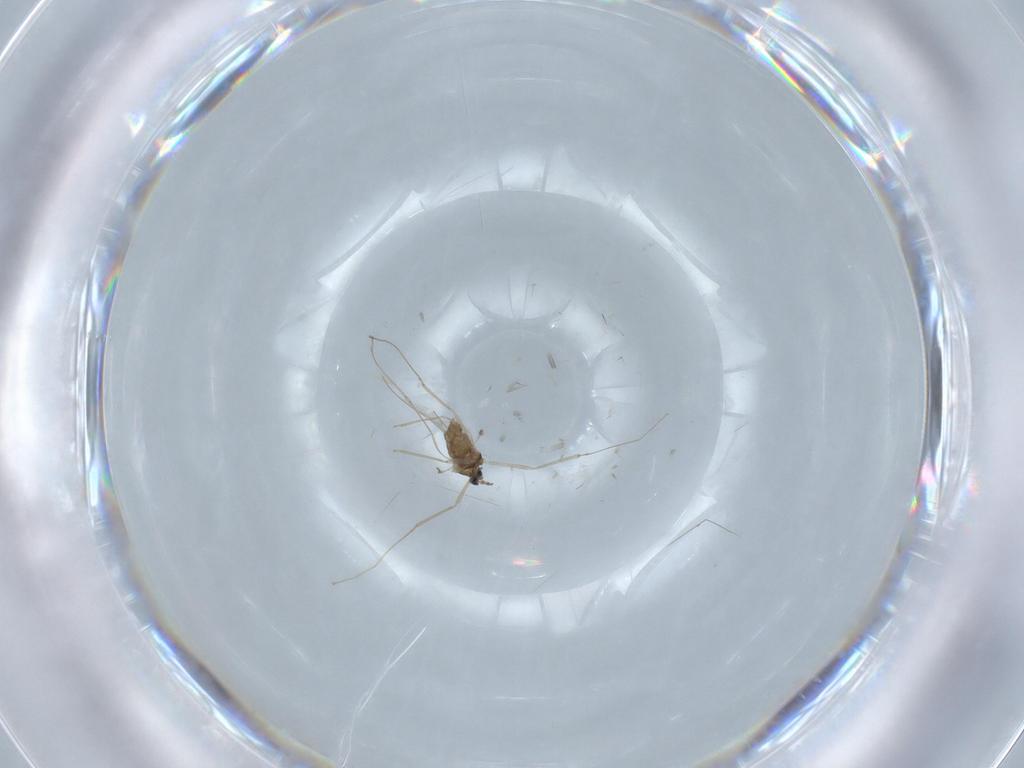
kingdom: Animalia
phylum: Arthropoda
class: Insecta
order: Diptera
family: Cecidomyiidae
